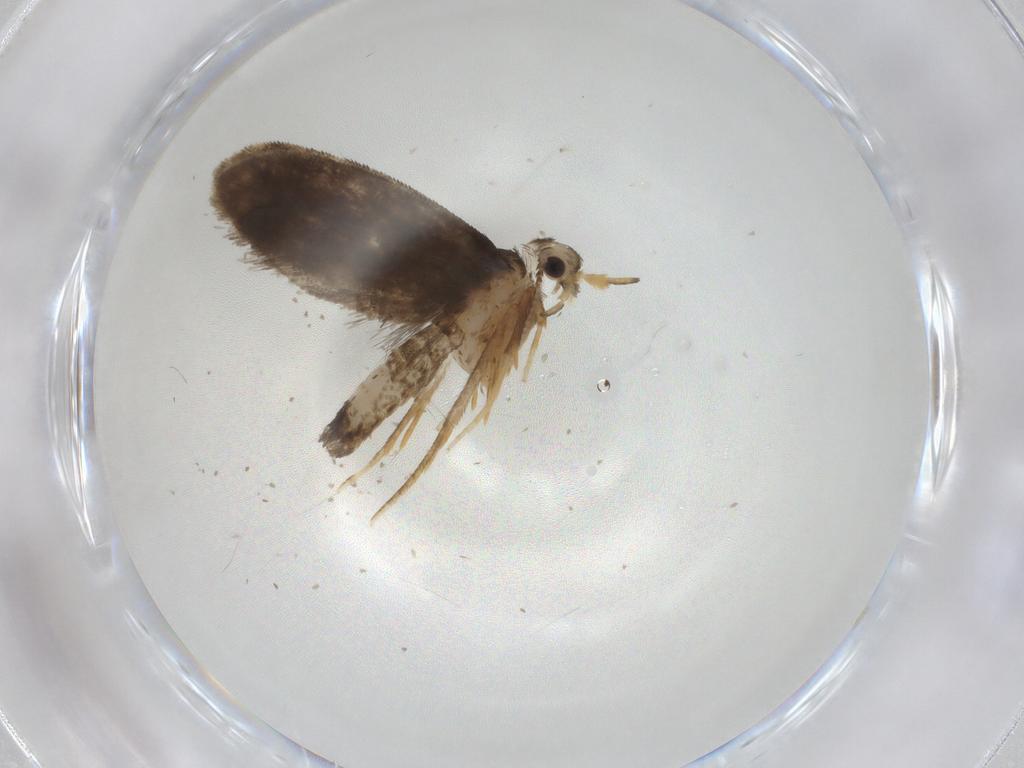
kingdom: Animalia
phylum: Arthropoda
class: Insecta
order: Lepidoptera
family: Psychidae
